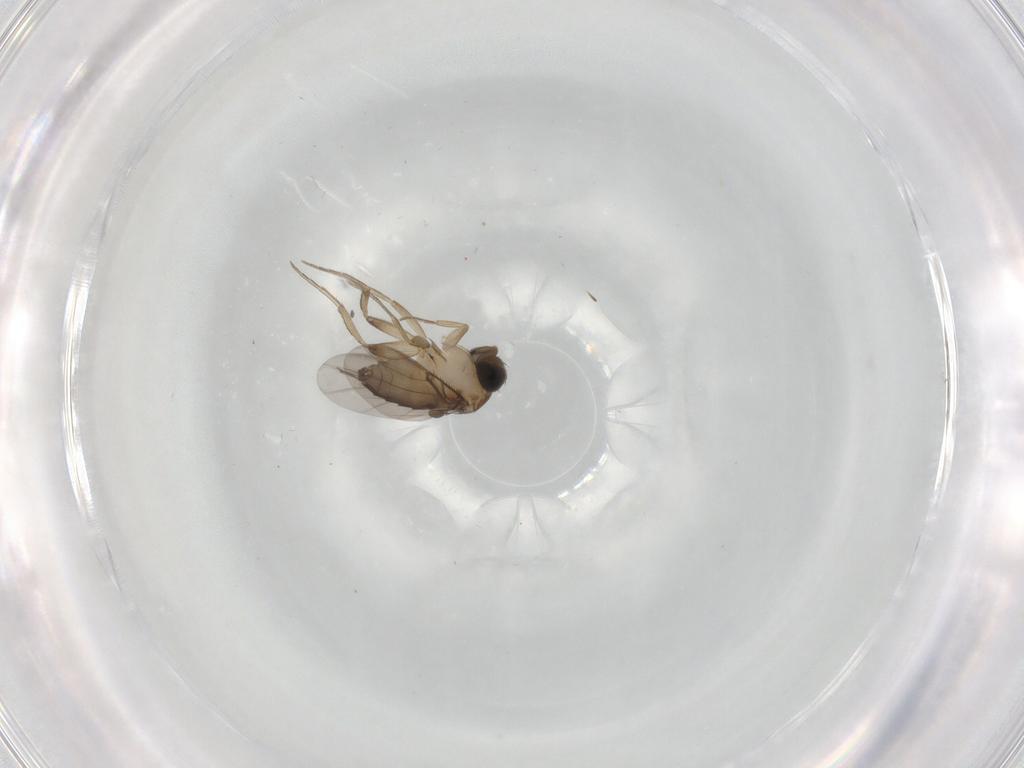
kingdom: Animalia
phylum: Arthropoda
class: Insecta
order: Diptera
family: Phoridae
